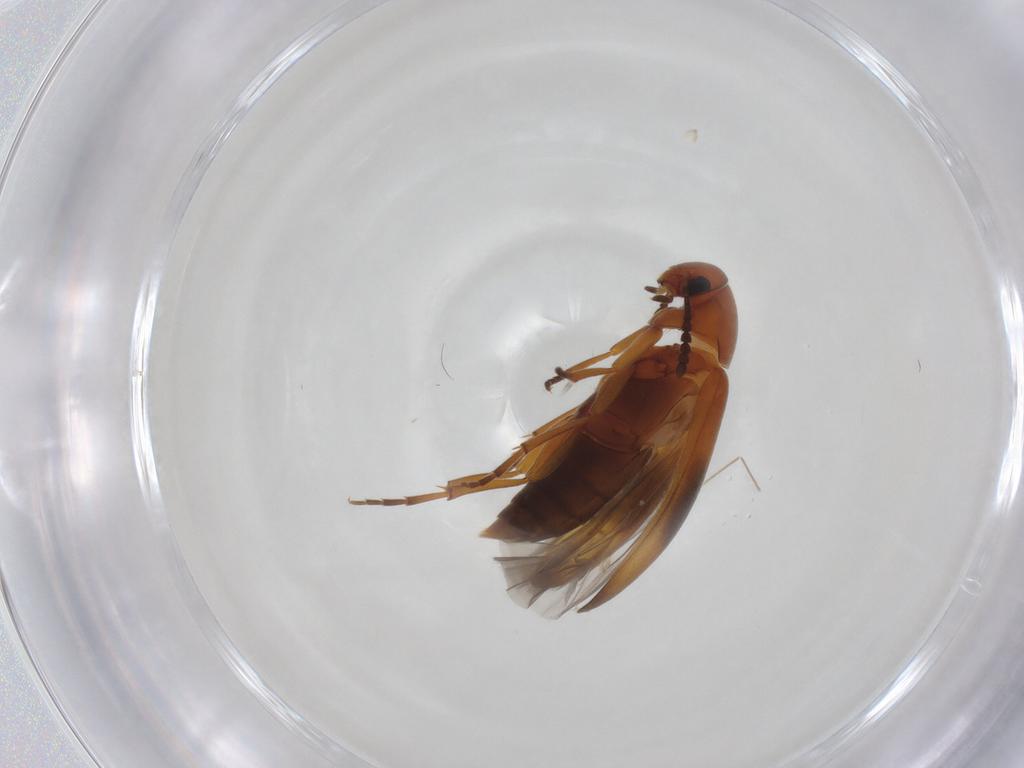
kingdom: Animalia
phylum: Arthropoda
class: Insecta
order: Coleoptera
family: Scraptiidae
